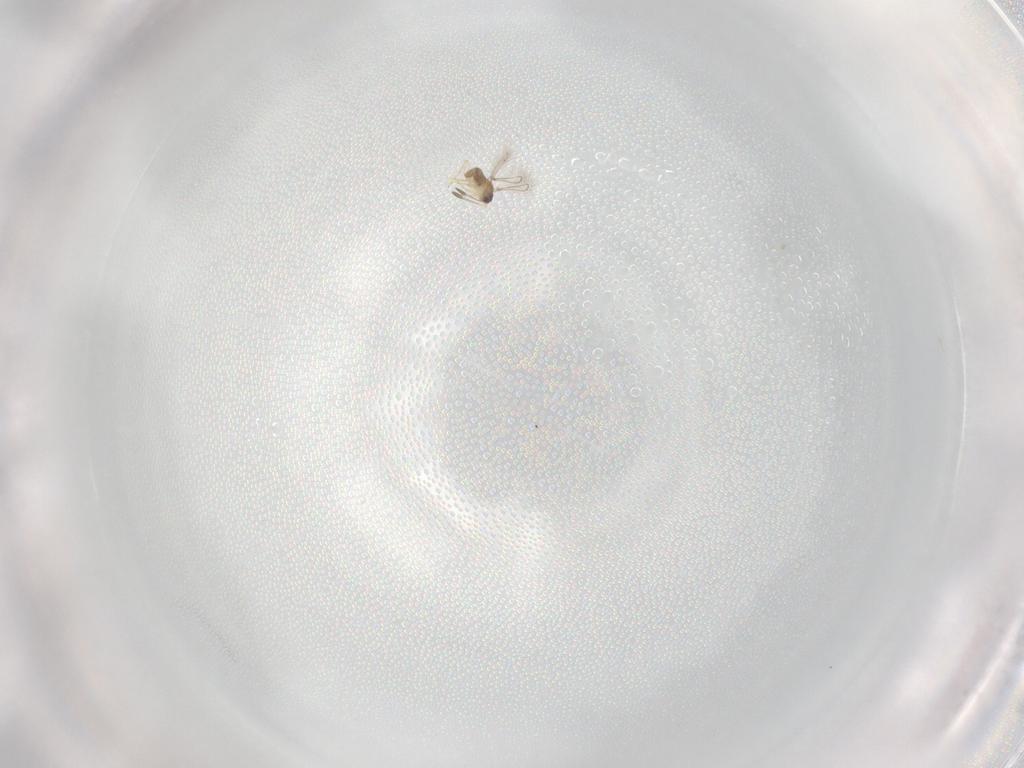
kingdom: Animalia
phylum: Arthropoda
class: Insecta
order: Hymenoptera
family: Mymaridae
